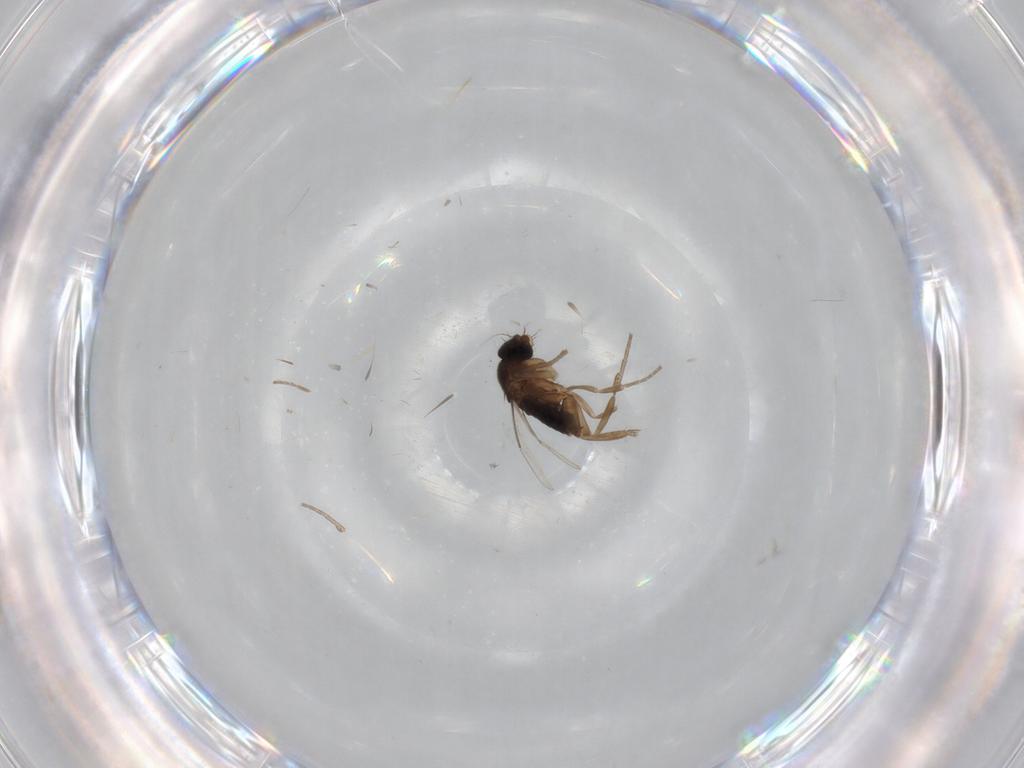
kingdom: Animalia
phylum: Arthropoda
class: Insecta
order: Diptera
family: Phoridae
